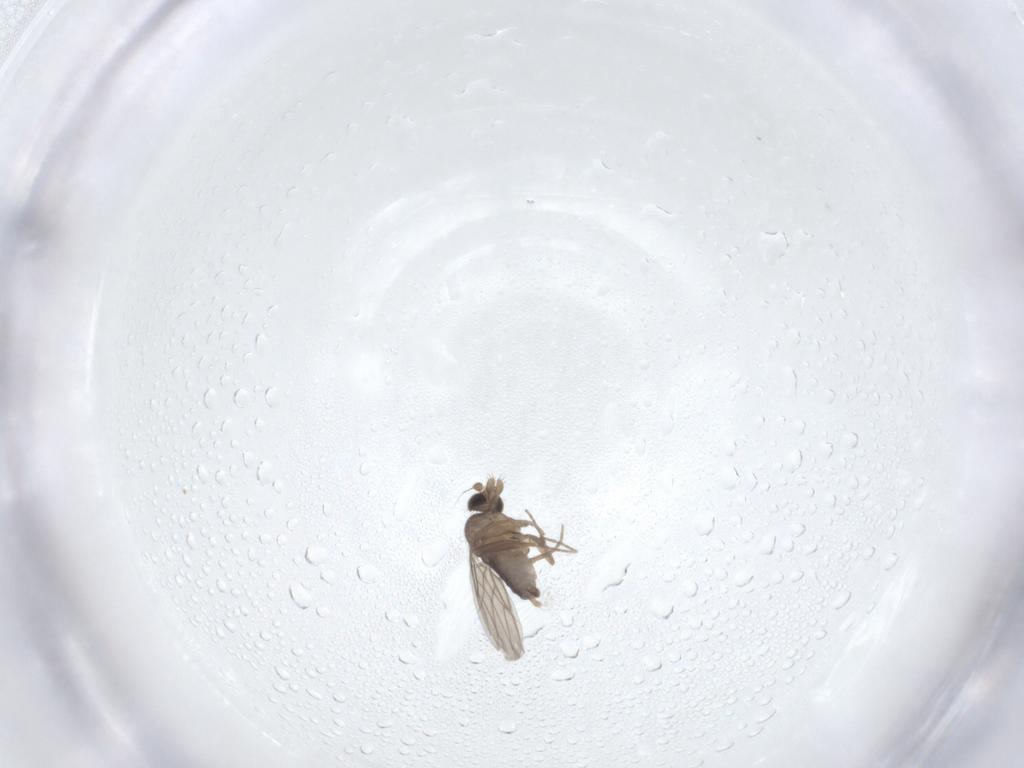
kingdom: Animalia
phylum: Arthropoda
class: Insecta
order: Diptera
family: Phoridae
